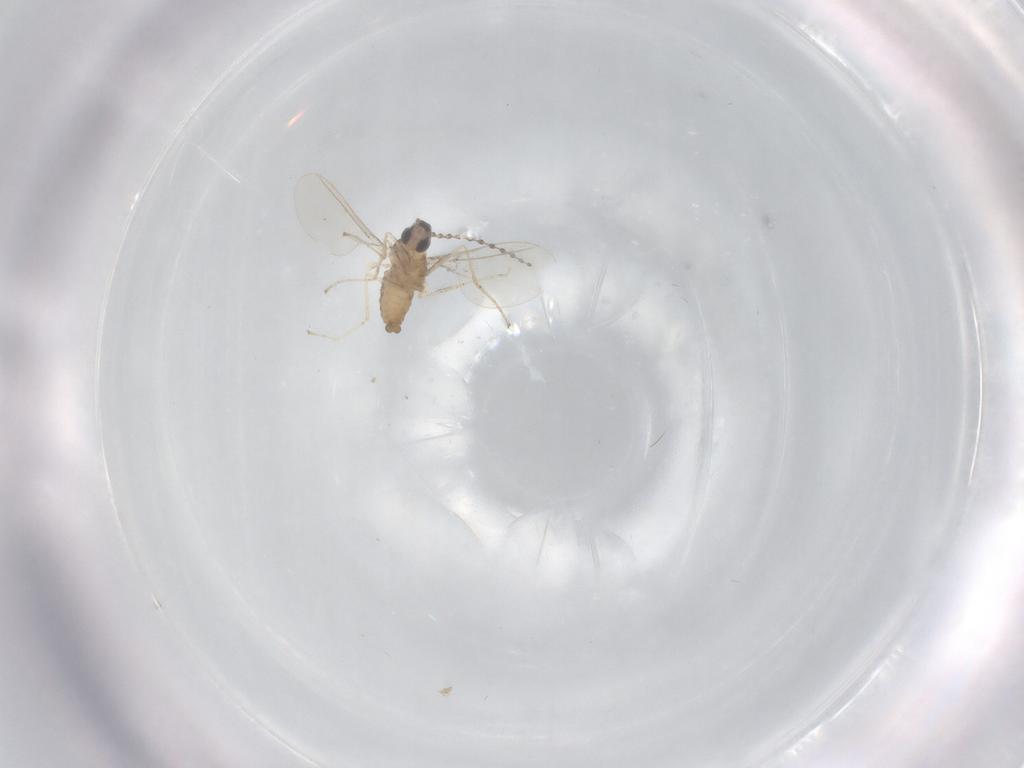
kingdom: Animalia
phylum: Arthropoda
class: Insecta
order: Diptera
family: Cecidomyiidae
